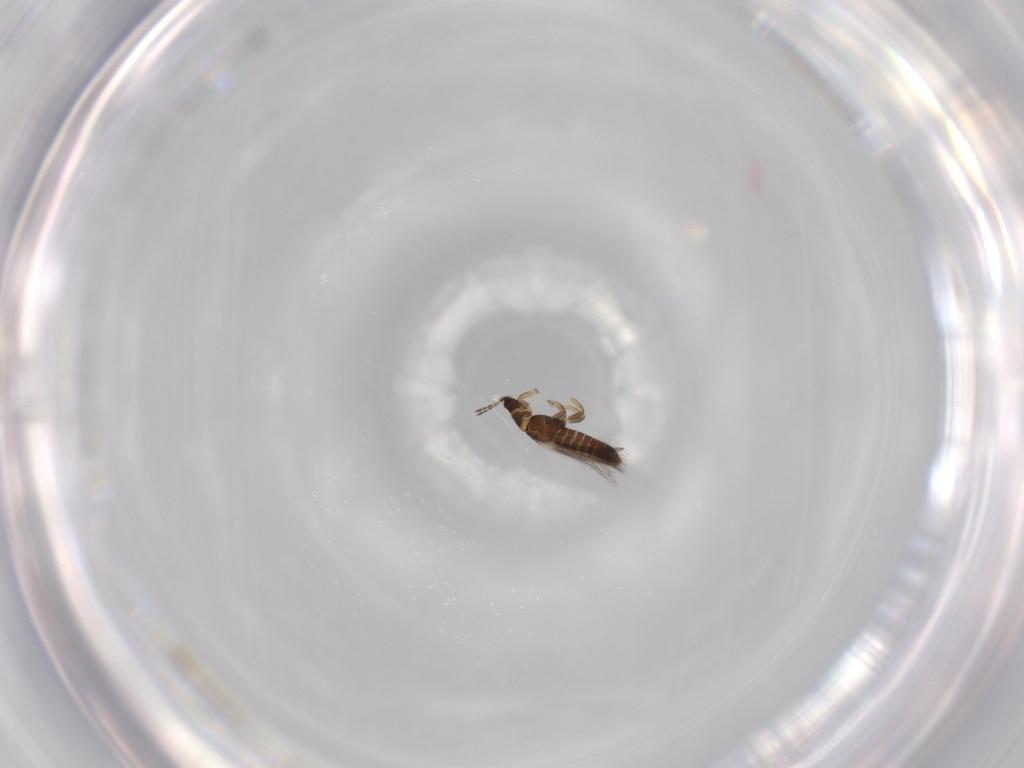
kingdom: Animalia
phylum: Arthropoda
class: Insecta
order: Thysanoptera
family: Thripidae
